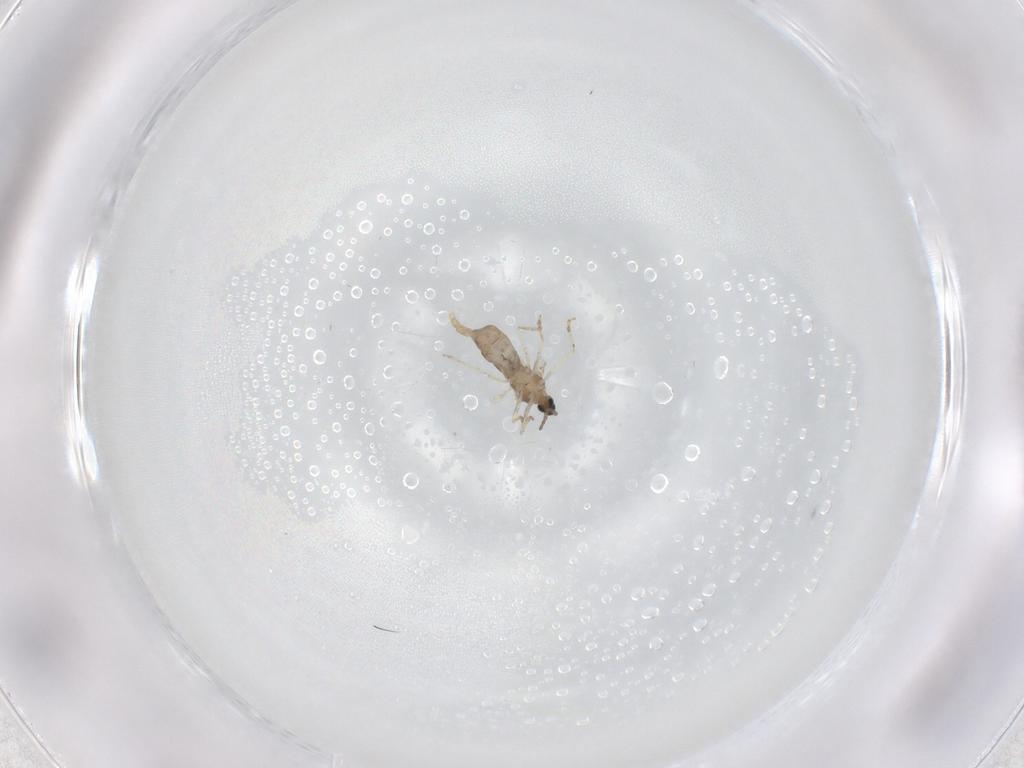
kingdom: Animalia
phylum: Arthropoda
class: Insecta
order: Diptera
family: Cecidomyiidae
